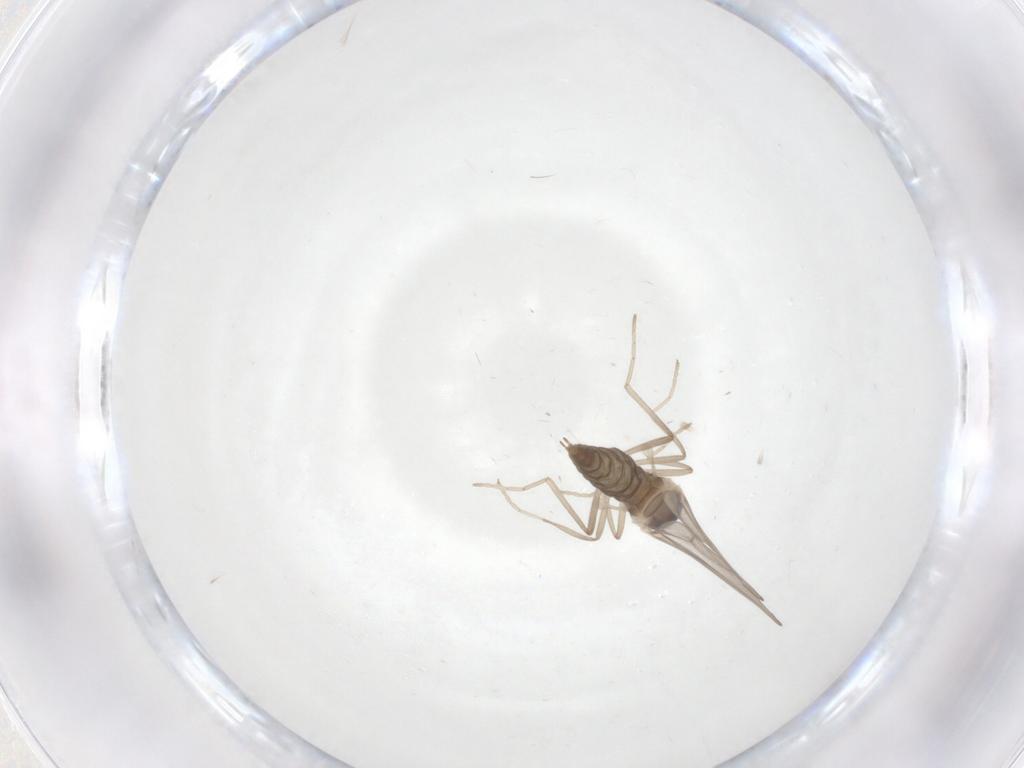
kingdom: Animalia
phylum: Arthropoda
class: Insecta
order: Diptera
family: Cecidomyiidae
